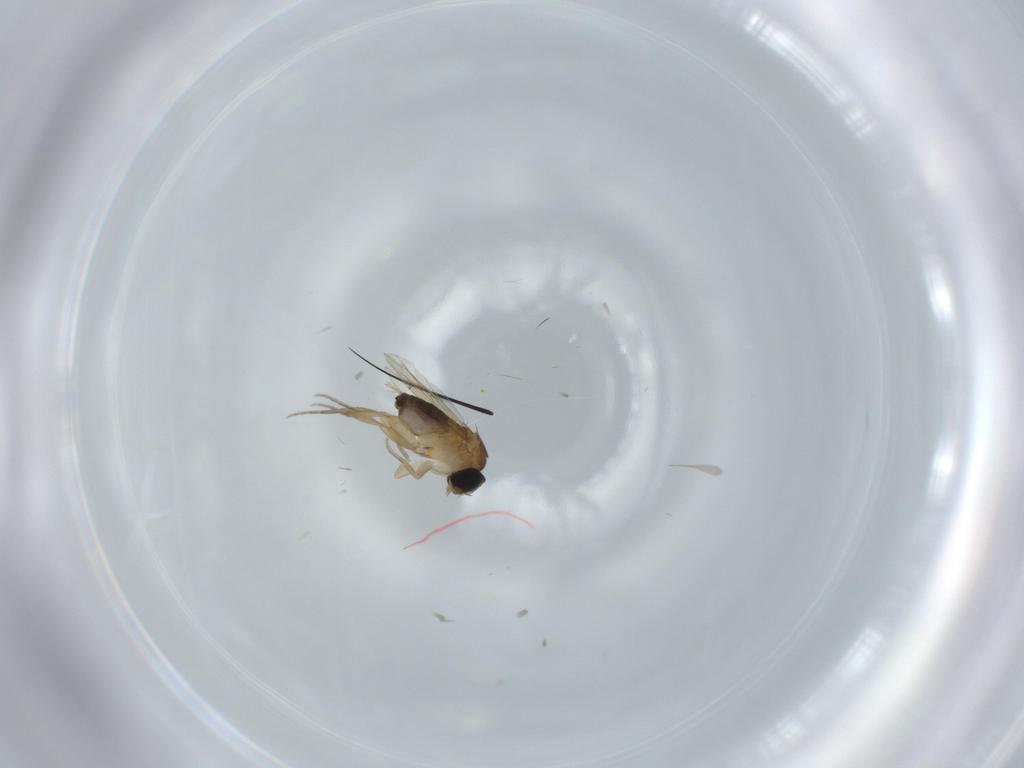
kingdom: Animalia
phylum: Arthropoda
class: Insecta
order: Diptera
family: Phoridae
